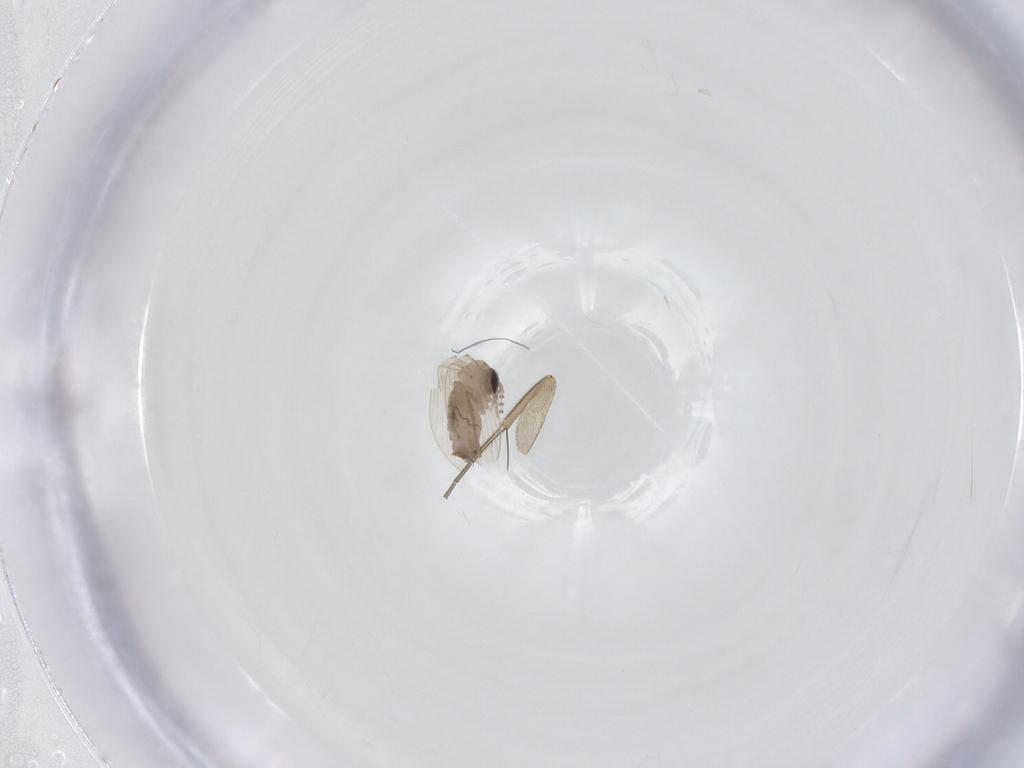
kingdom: Animalia
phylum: Arthropoda
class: Insecta
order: Diptera
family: Psychodidae
